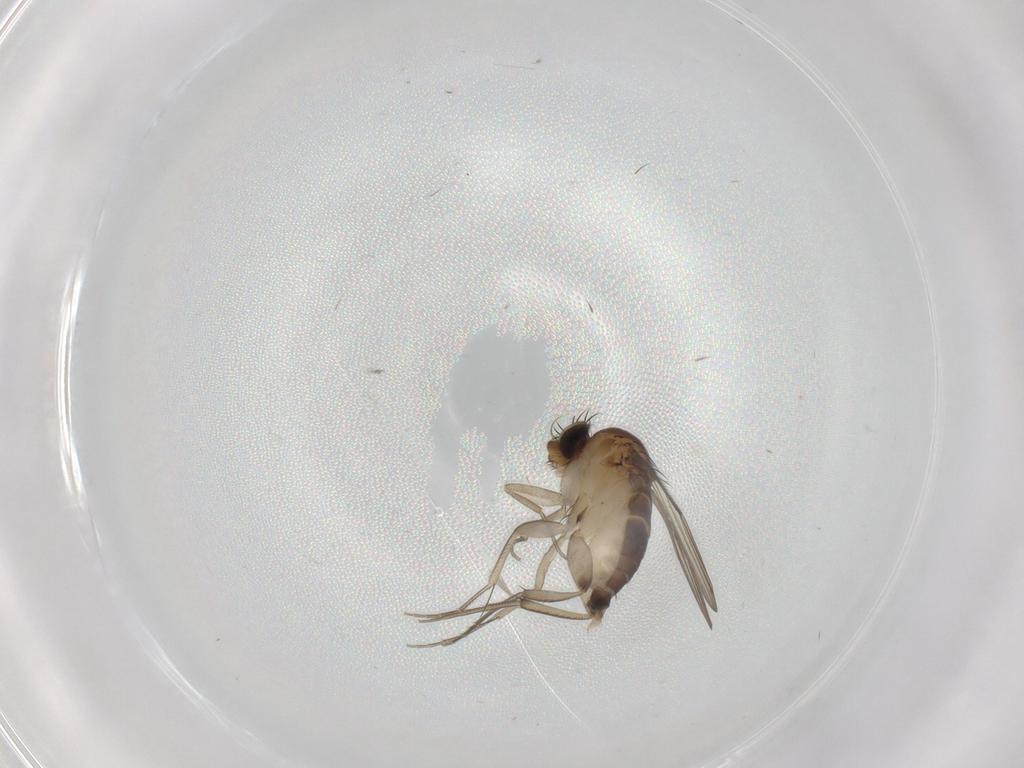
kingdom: Animalia
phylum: Arthropoda
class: Insecta
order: Diptera
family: Phoridae
